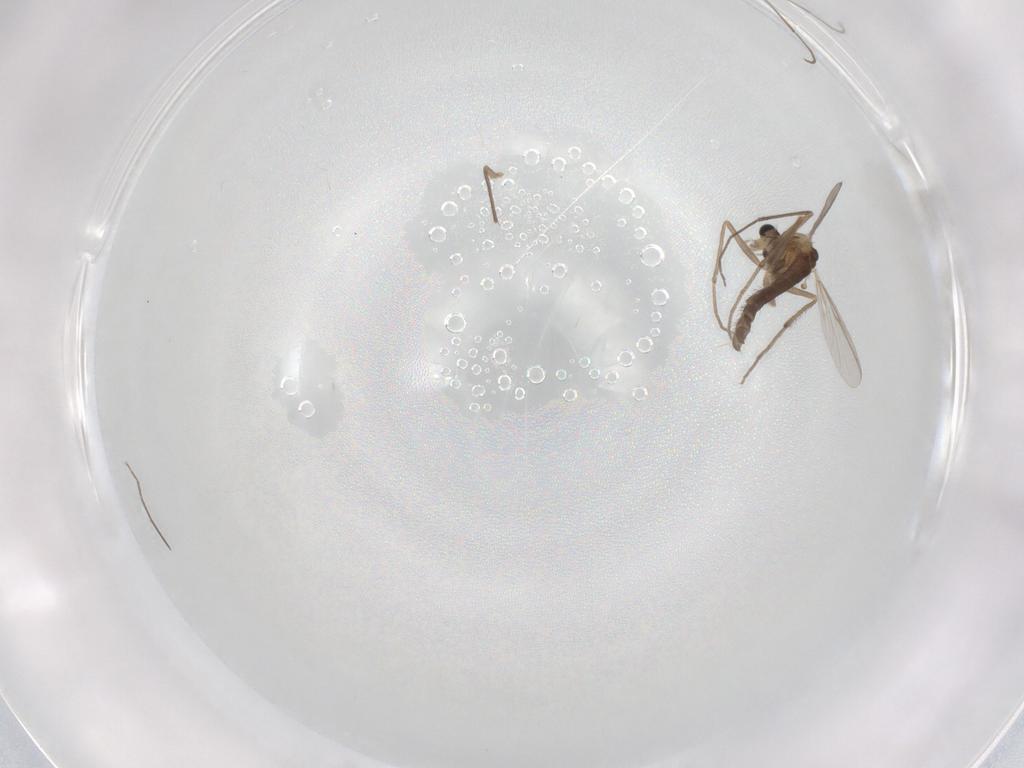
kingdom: Animalia
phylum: Arthropoda
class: Insecta
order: Diptera
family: Chironomidae
